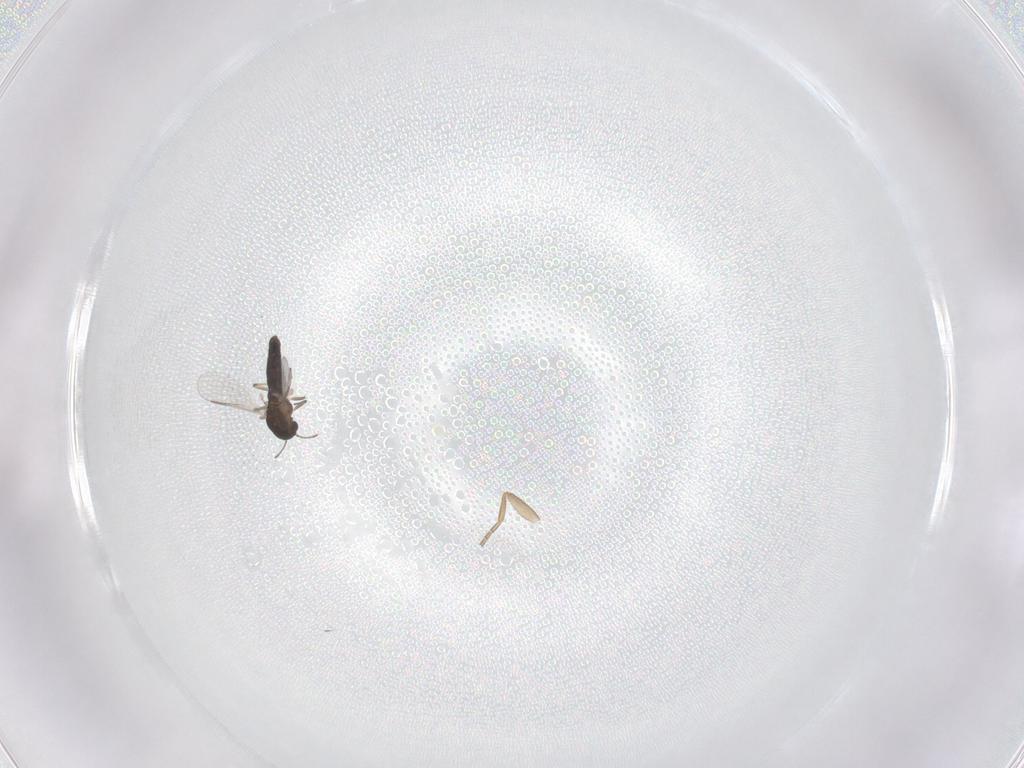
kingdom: Animalia
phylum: Arthropoda
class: Insecta
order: Diptera
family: Chironomidae
